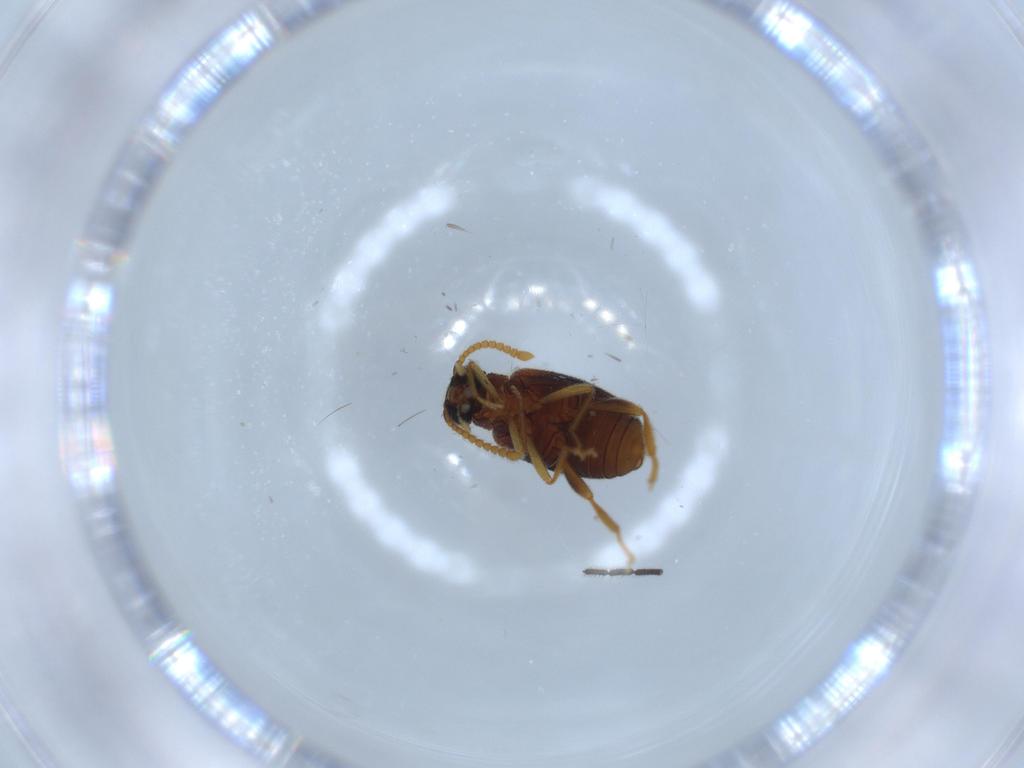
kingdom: Animalia
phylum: Arthropoda
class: Insecta
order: Coleoptera
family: Aderidae
